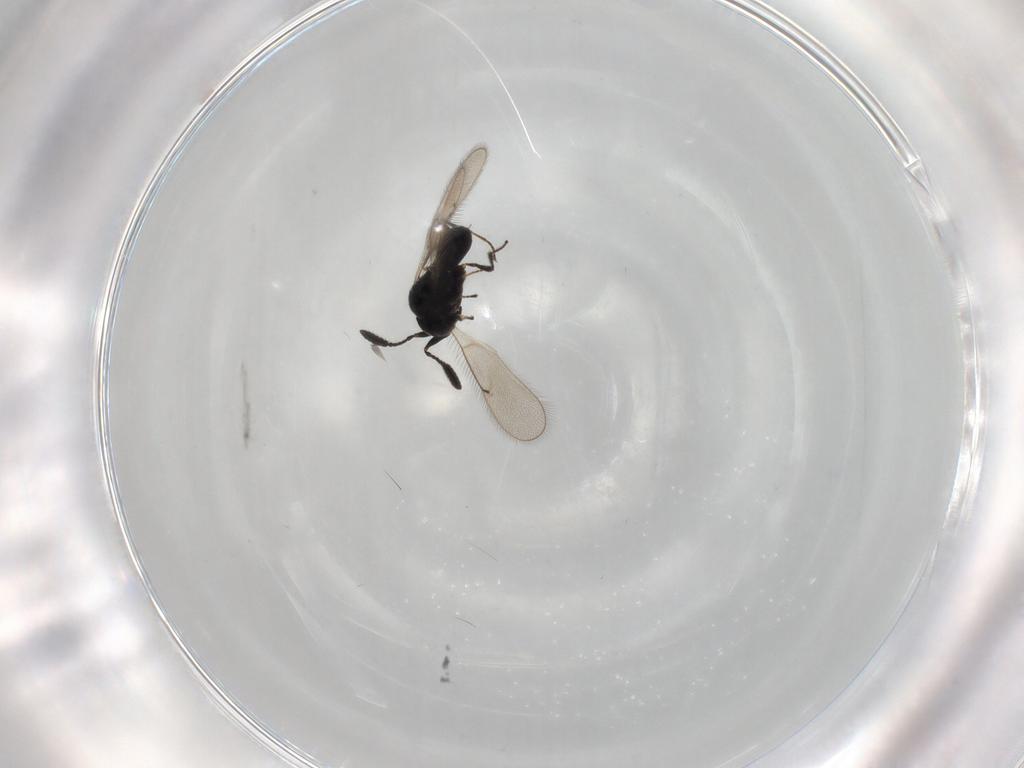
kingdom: Animalia
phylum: Arthropoda
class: Insecta
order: Hymenoptera
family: Scelionidae
